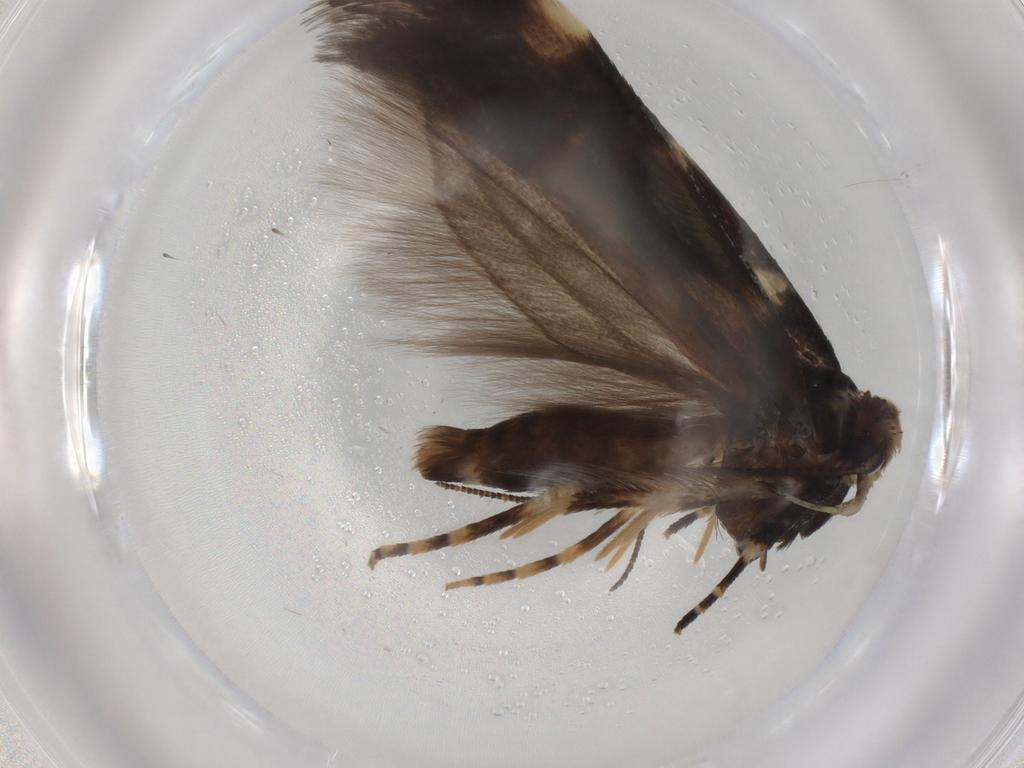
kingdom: Animalia
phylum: Arthropoda
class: Insecta
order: Lepidoptera
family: Gelechiidae
